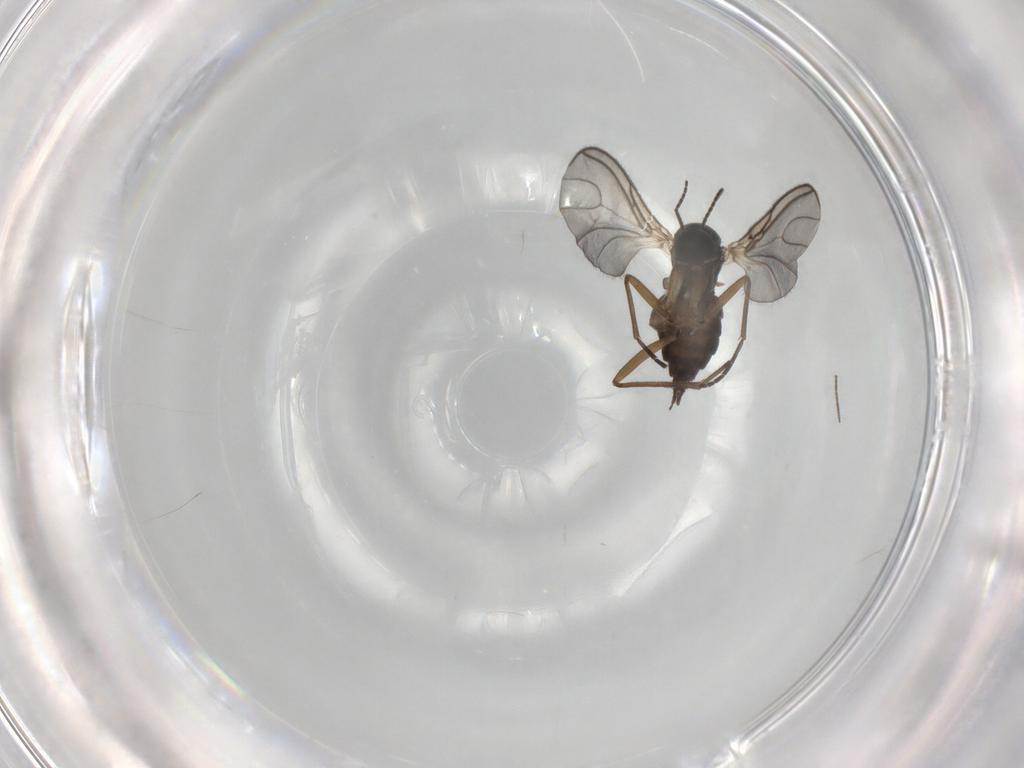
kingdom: Animalia
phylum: Arthropoda
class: Insecta
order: Diptera
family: Sciaridae
